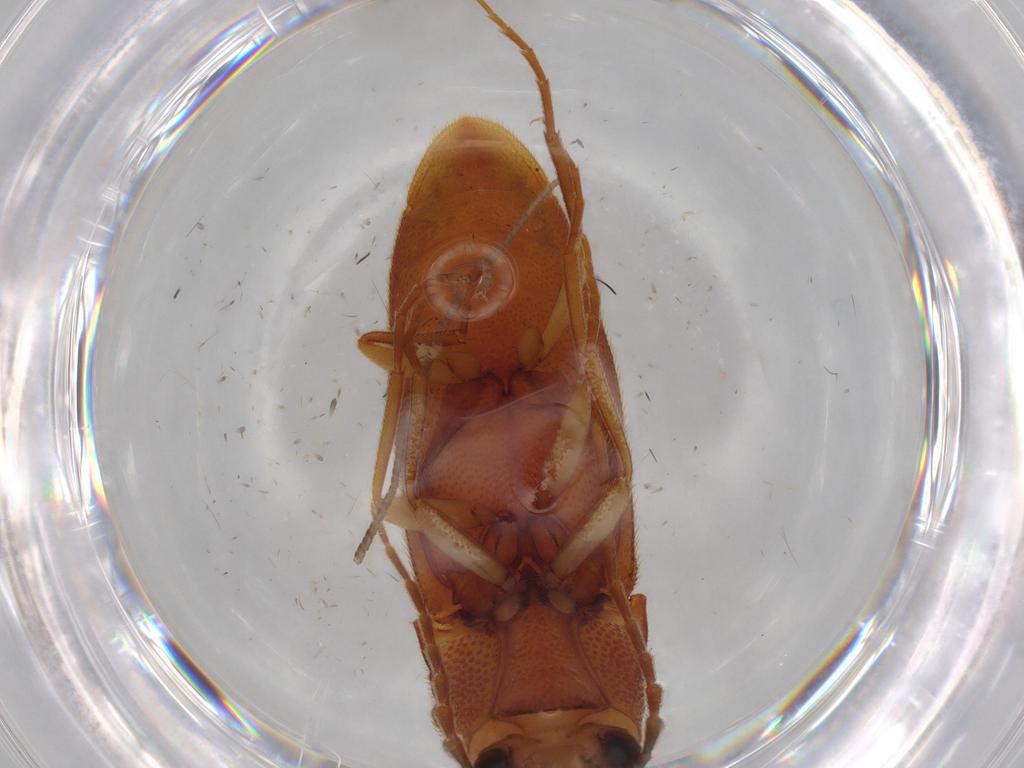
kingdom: Animalia
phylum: Arthropoda
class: Insecta
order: Coleoptera
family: Elateridae
